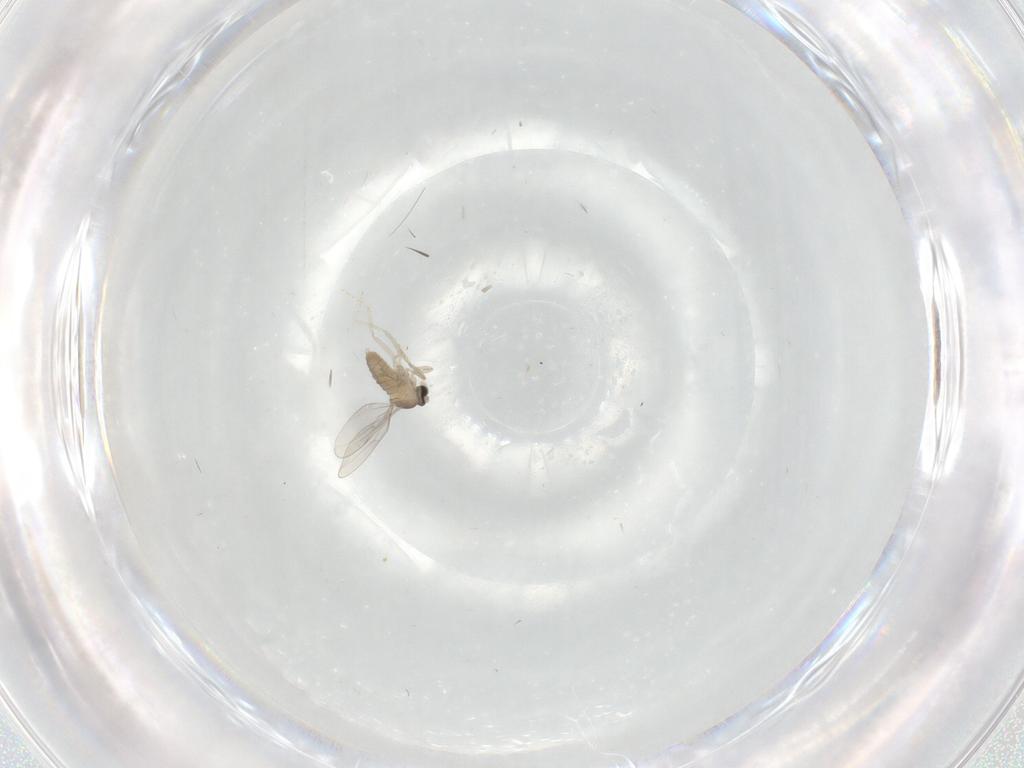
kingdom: Animalia
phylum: Arthropoda
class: Insecta
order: Diptera
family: Cecidomyiidae
